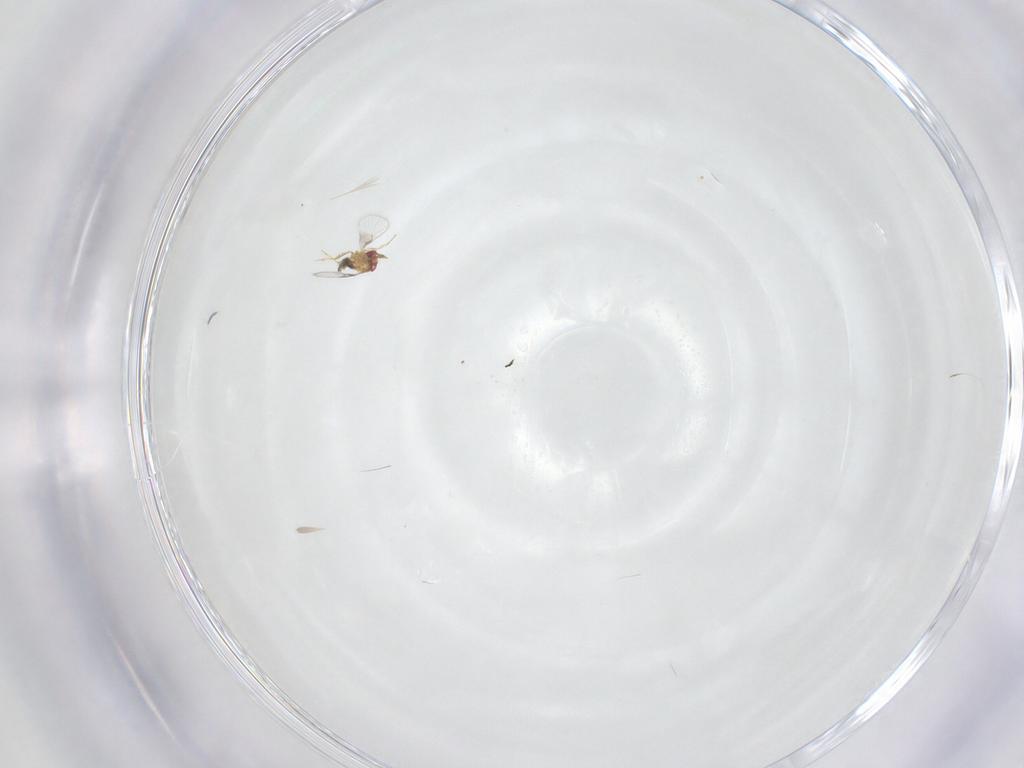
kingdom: Animalia
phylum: Arthropoda
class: Insecta
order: Hymenoptera
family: Trichogrammatidae
